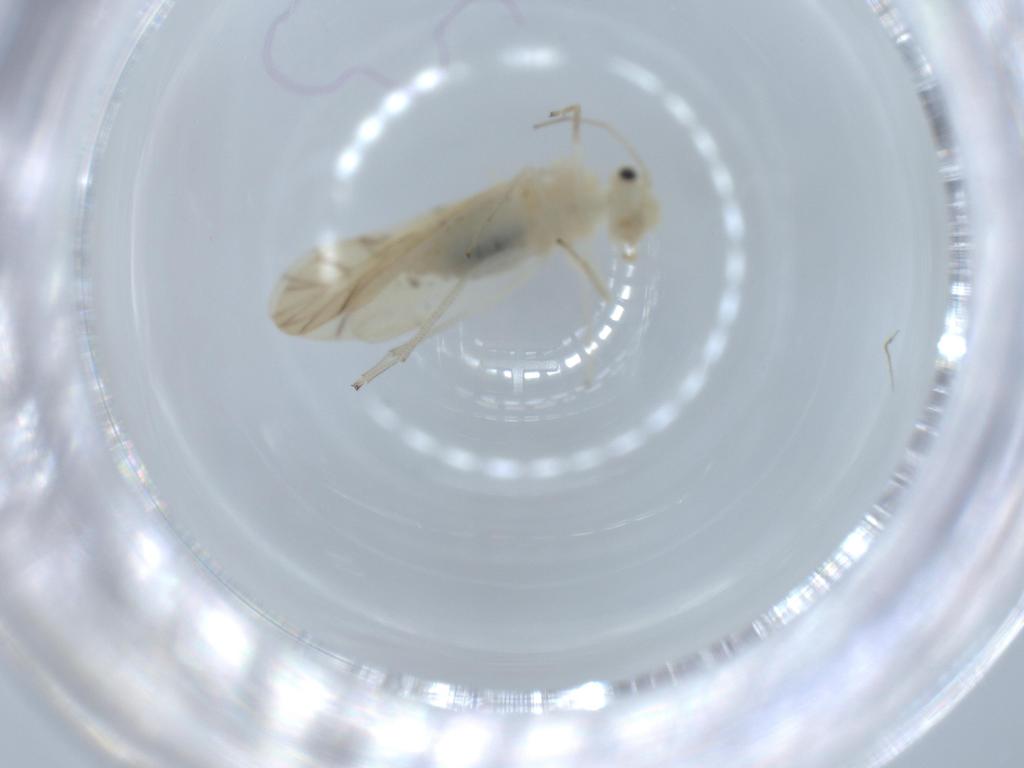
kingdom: Animalia
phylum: Arthropoda
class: Insecta
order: Psocodea
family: Caeciliusidae
